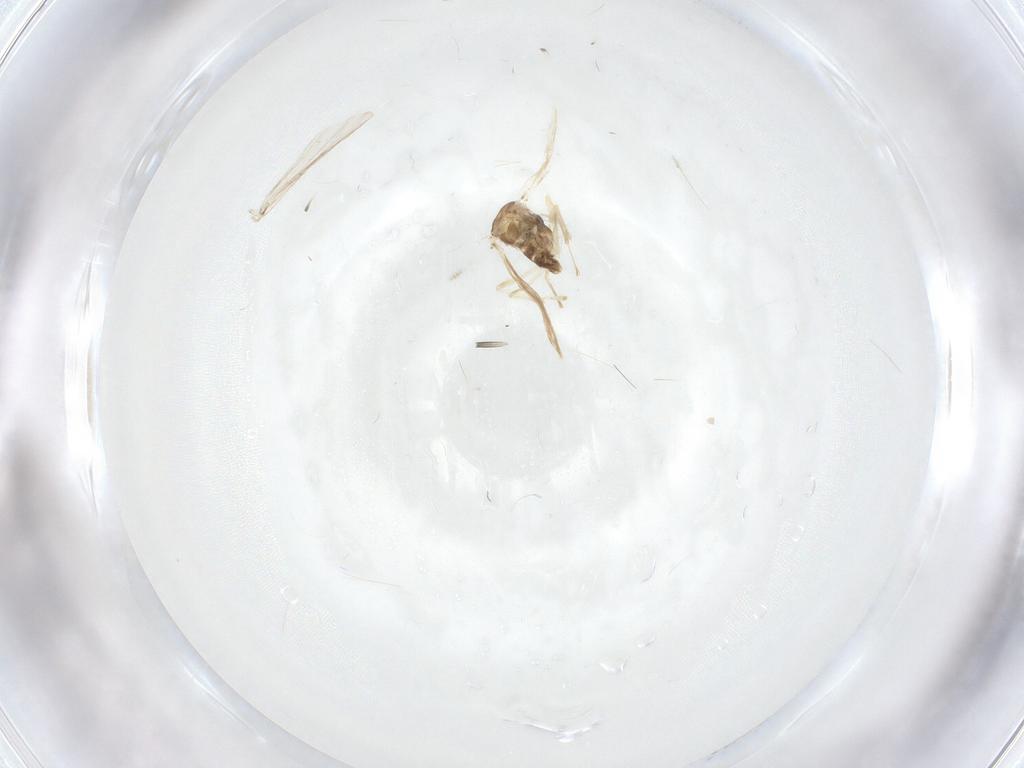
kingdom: Animalia
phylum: Arthropoda
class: Insecta
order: Diptera
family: Chironomidae
